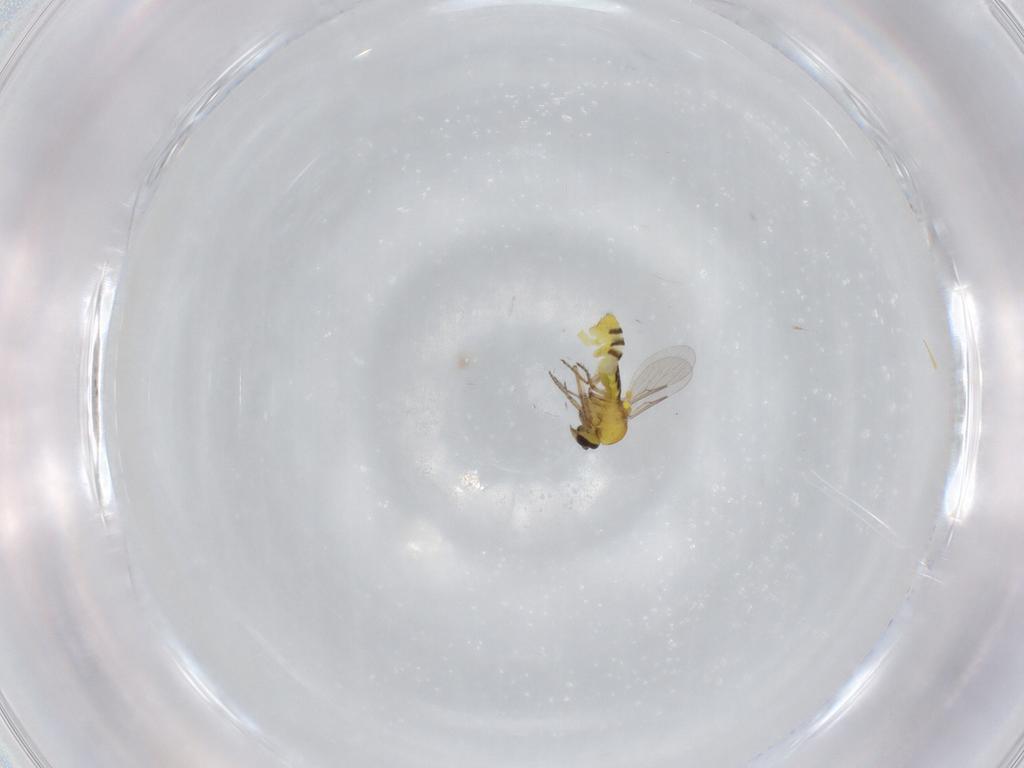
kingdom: Animalia
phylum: Arthropoda
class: Insecta
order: Diptera
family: Ceratopogonidae
